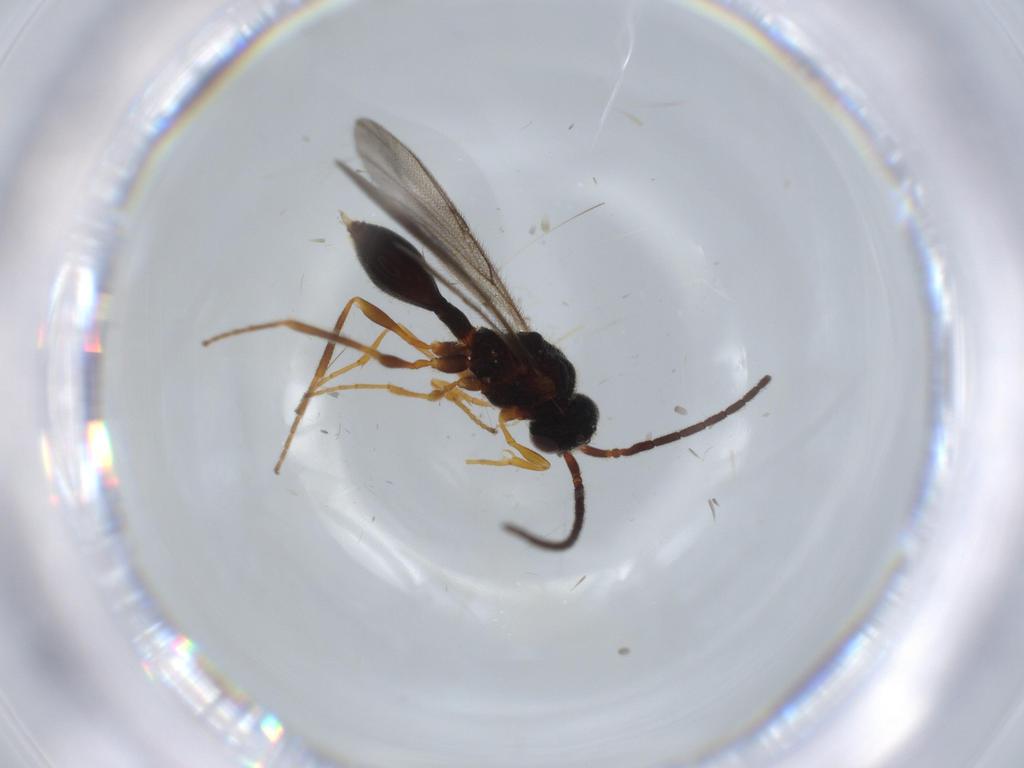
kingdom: Animalia
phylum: Arthropoda
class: Insecta
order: Hymenoptera
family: Diapriidae
